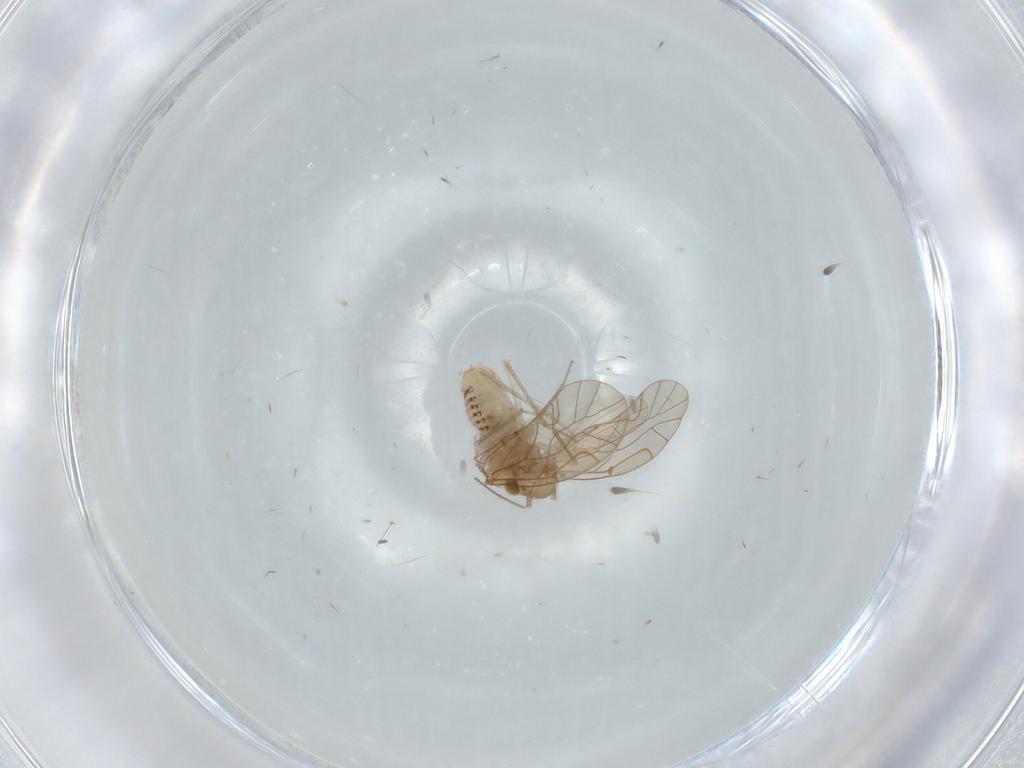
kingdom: Animalia
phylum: Arthropoda
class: Insecta
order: Psocodea
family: Lachesillidae
